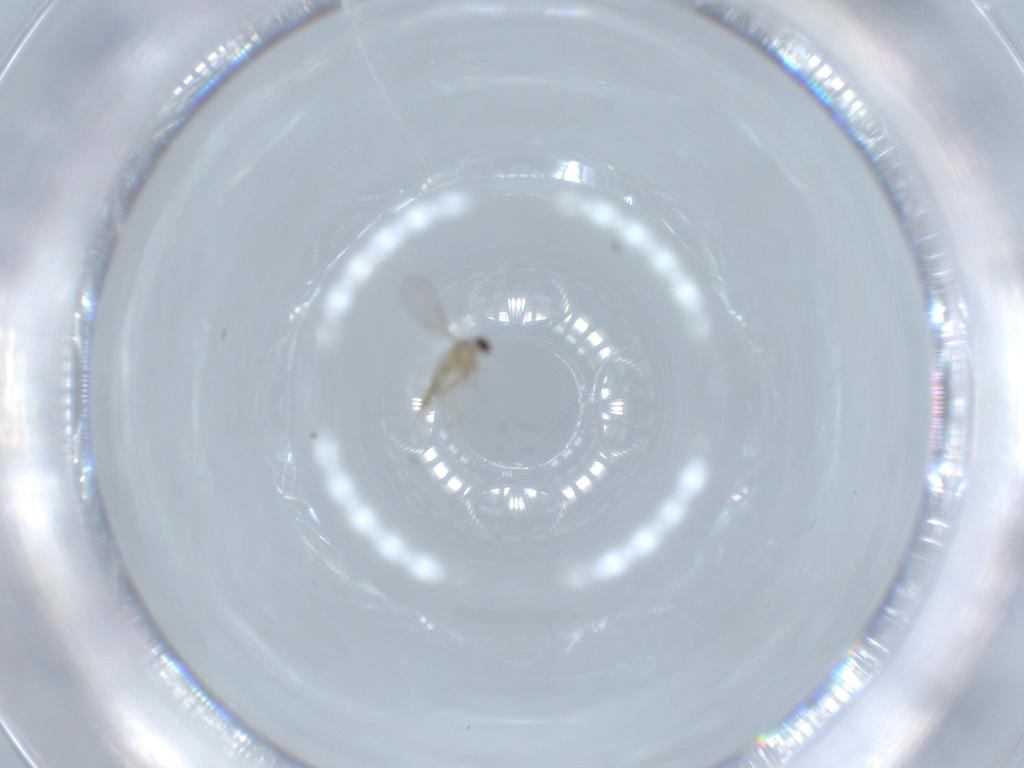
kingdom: Animalia
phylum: Arthropoda
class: Insecta
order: Diptera
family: Cecidomyiidae
